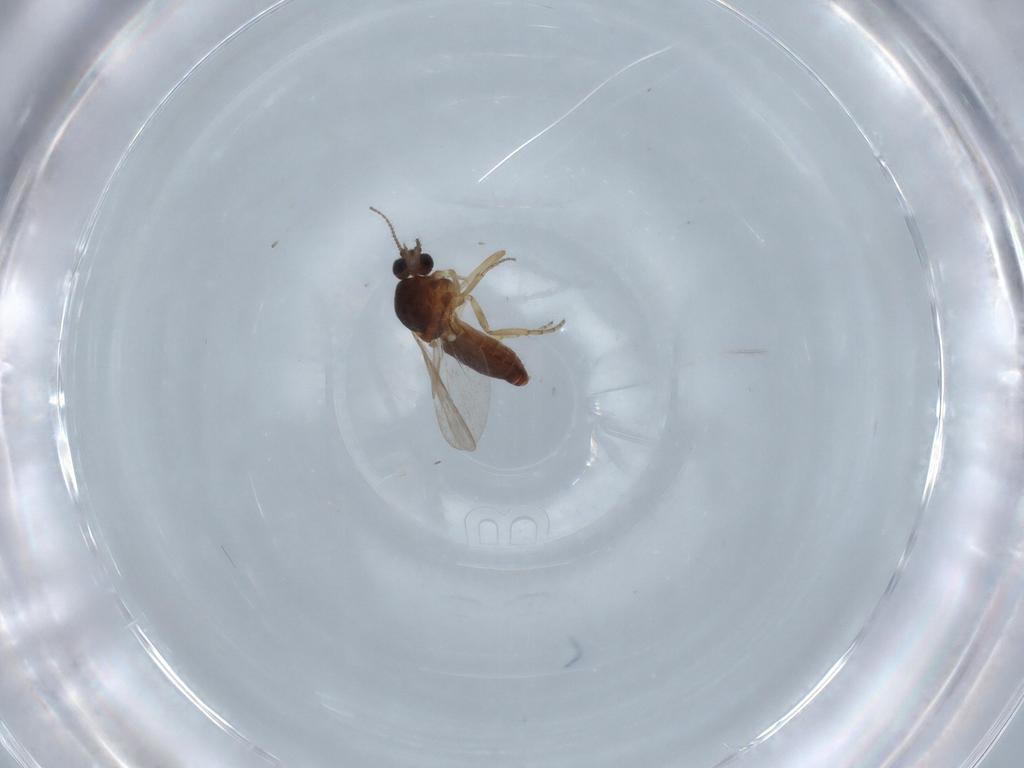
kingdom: Animalia
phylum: Arthropoda
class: Insecta
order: Diptera
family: Ceratopogonidae
